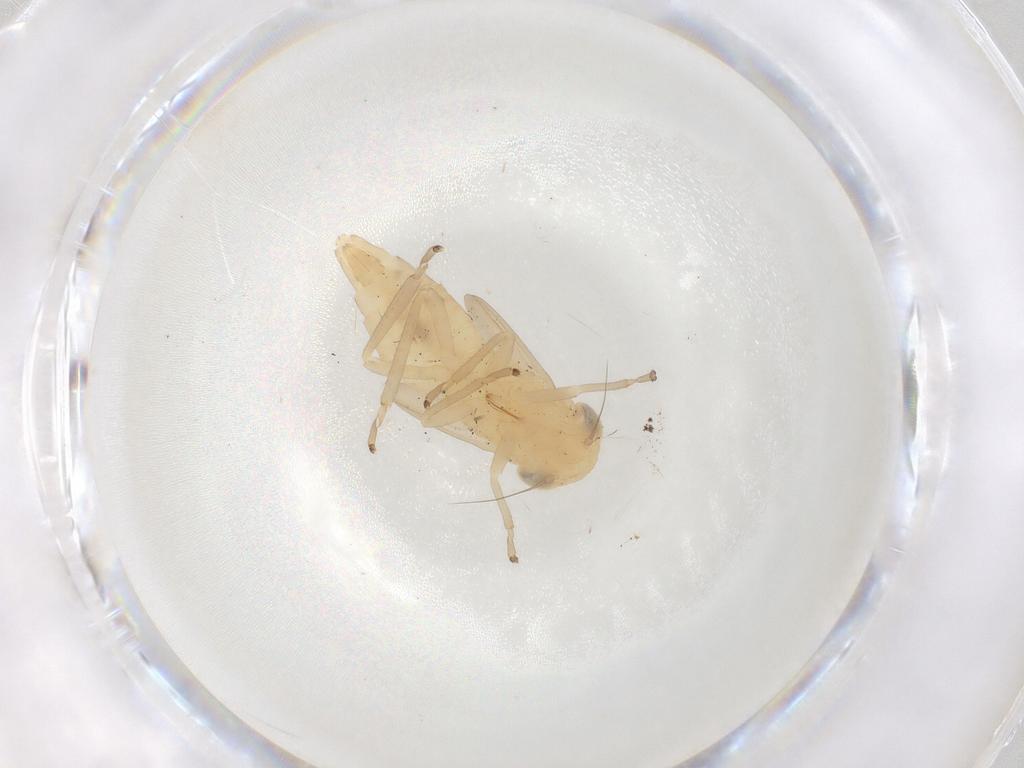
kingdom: Animalia
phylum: Arthropoda
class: Insecta
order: Hemiptera
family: Cicadellidae
